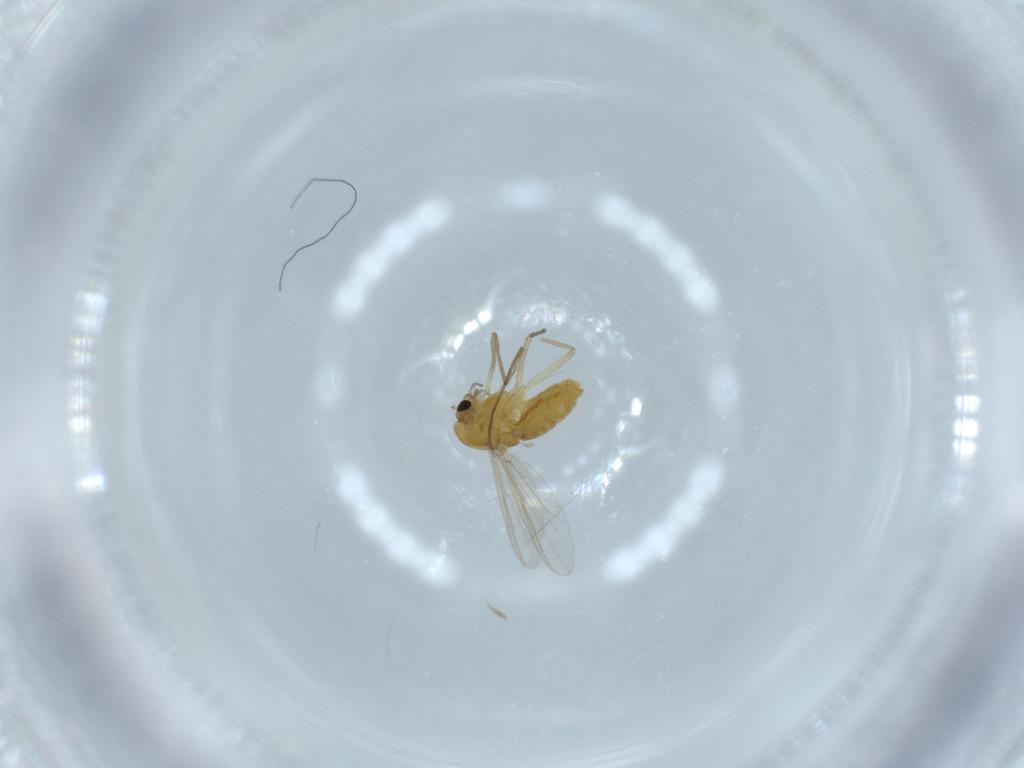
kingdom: Animalia
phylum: Arthropoda
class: Insecta
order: Diptera
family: Chironomidae
